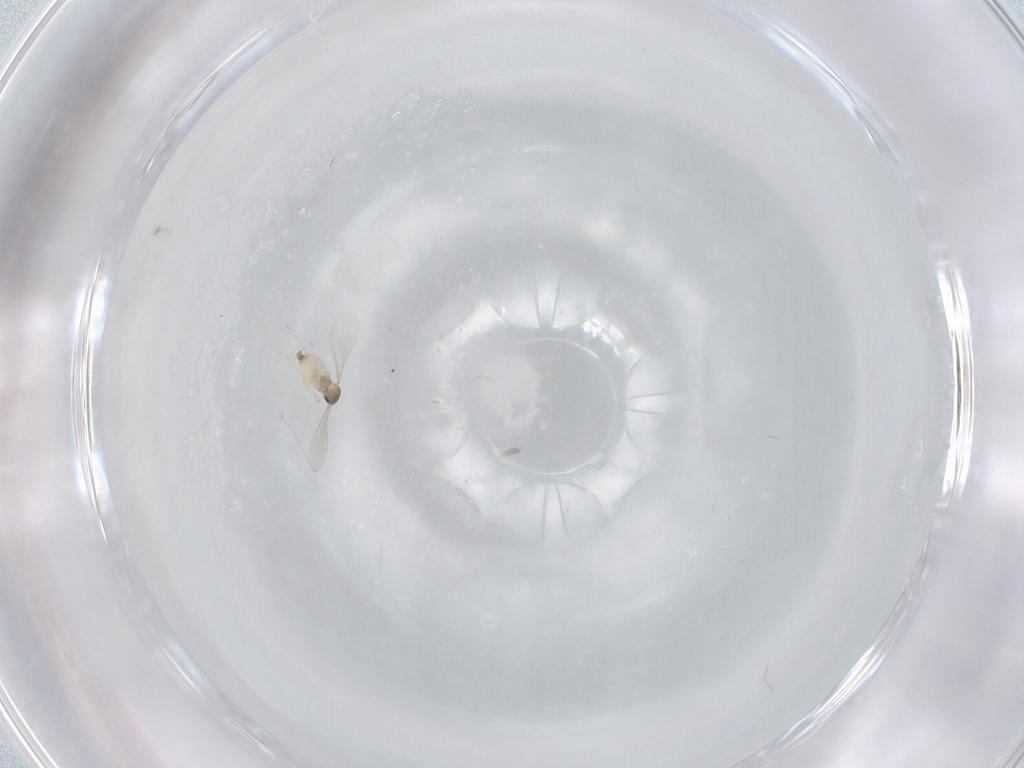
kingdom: Animalia
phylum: Arthropoda
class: Insecta
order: Diptera
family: Cecidomyiidae
